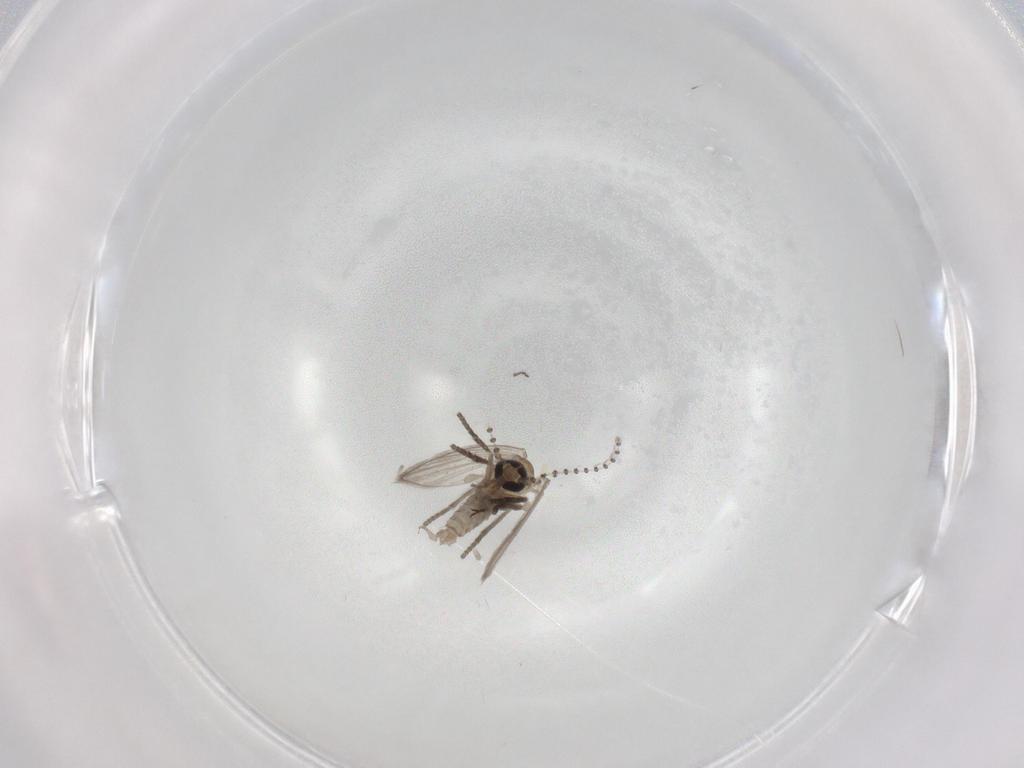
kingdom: Animalia
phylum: Arthropoda
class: Insecta
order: Diptera
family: Psychodidae
